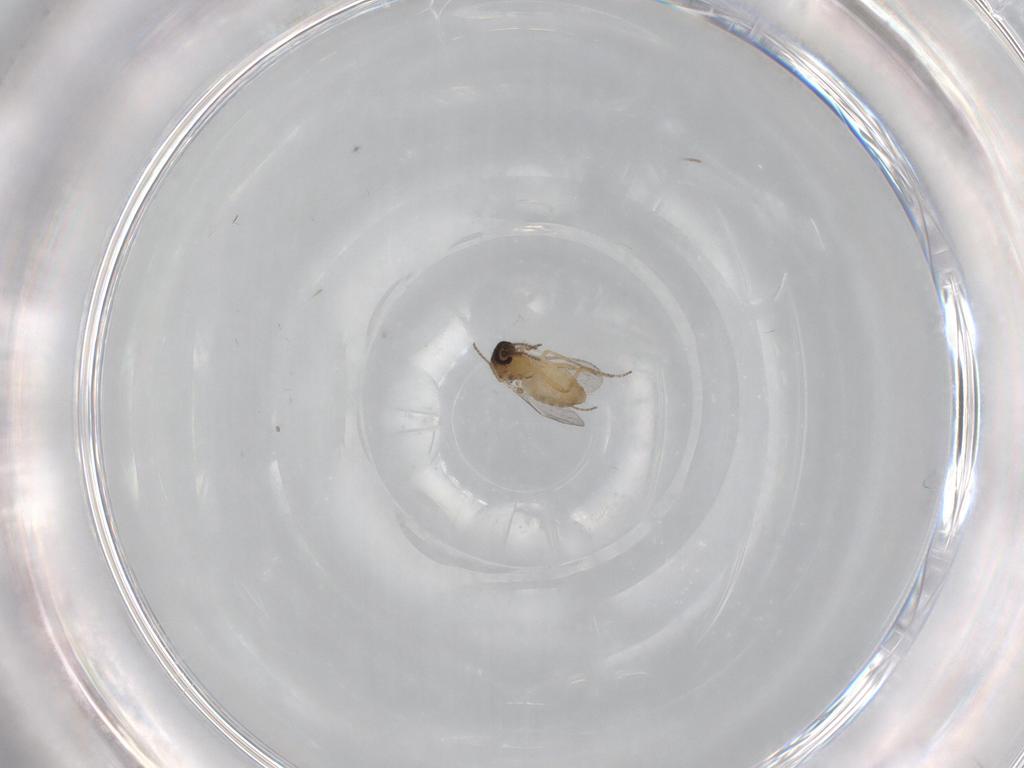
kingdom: Animalia
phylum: Arthropoda
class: Insecta
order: Diptera
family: Ceratopogonidae
